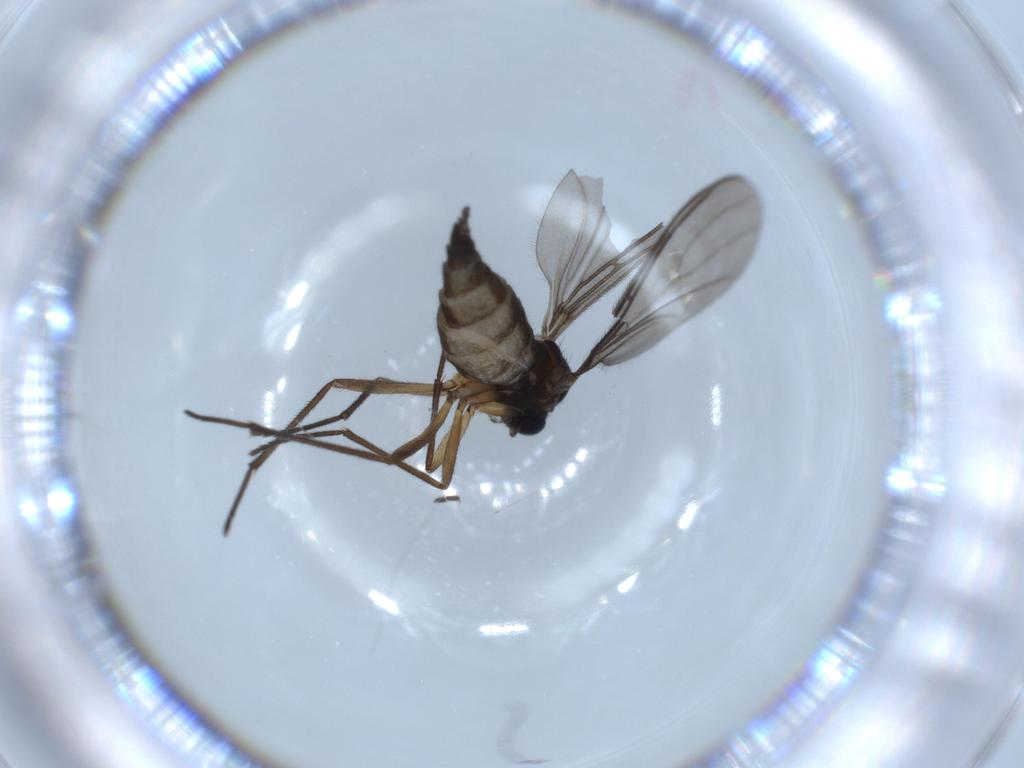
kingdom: Animalia
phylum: Arthropoda
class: Insecta
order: Diptera
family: Sciaridae
